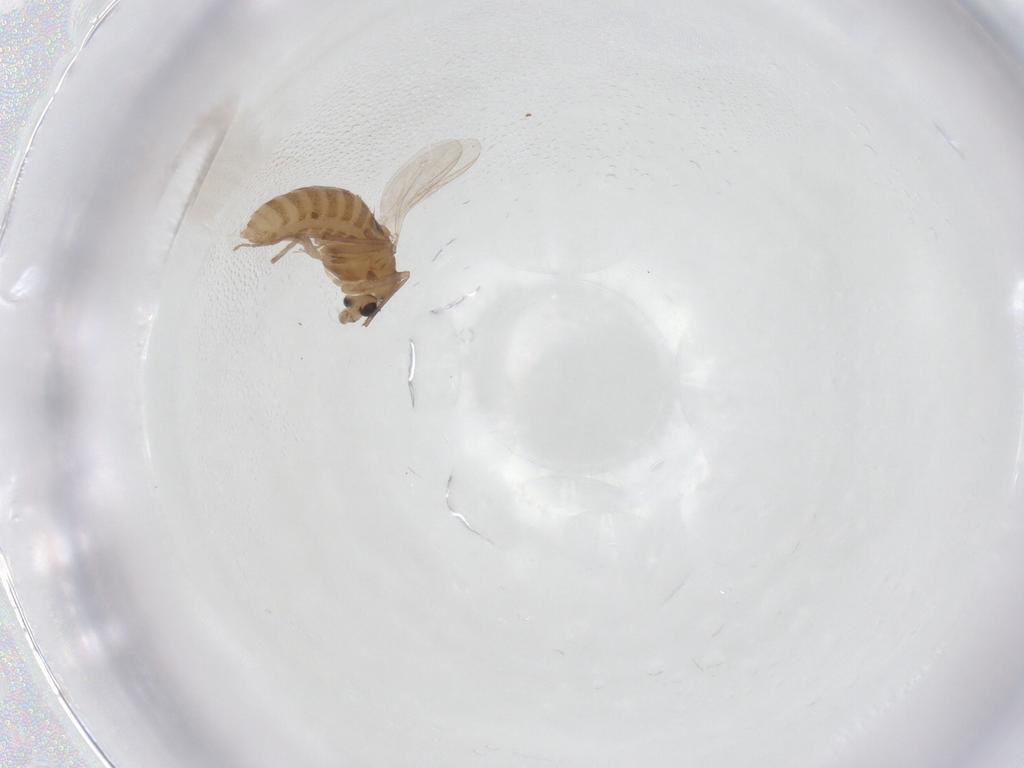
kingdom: Animalia
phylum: Arthropoda
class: Insecta
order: Diptera
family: Chironomidae
